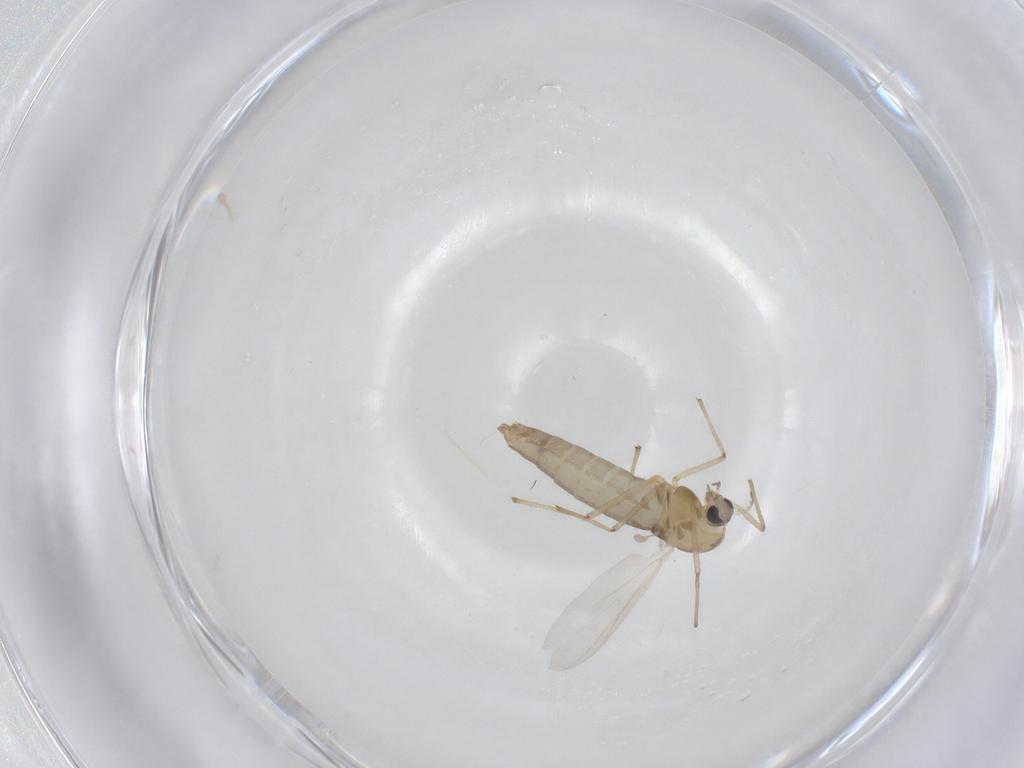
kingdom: Animalia
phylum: Arthropoda
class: Insecta
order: Diptera
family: Chironomidae
